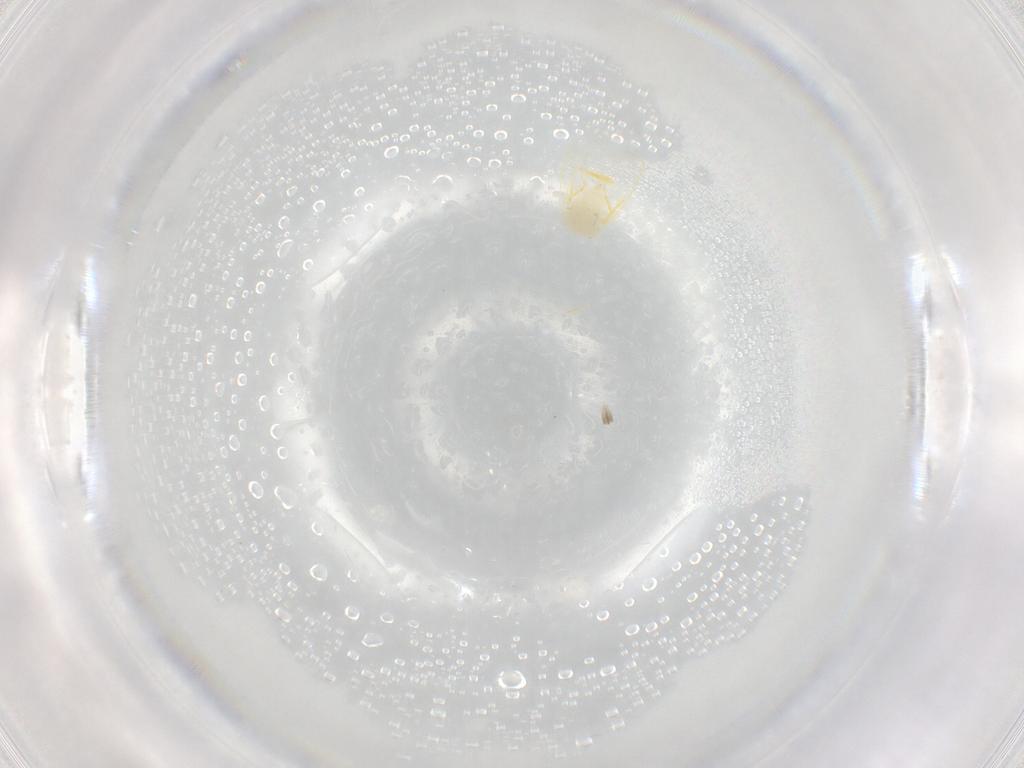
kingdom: Animalia
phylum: Arthropoda
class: Insecta
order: Hemiptera
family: Aleyrodidae
